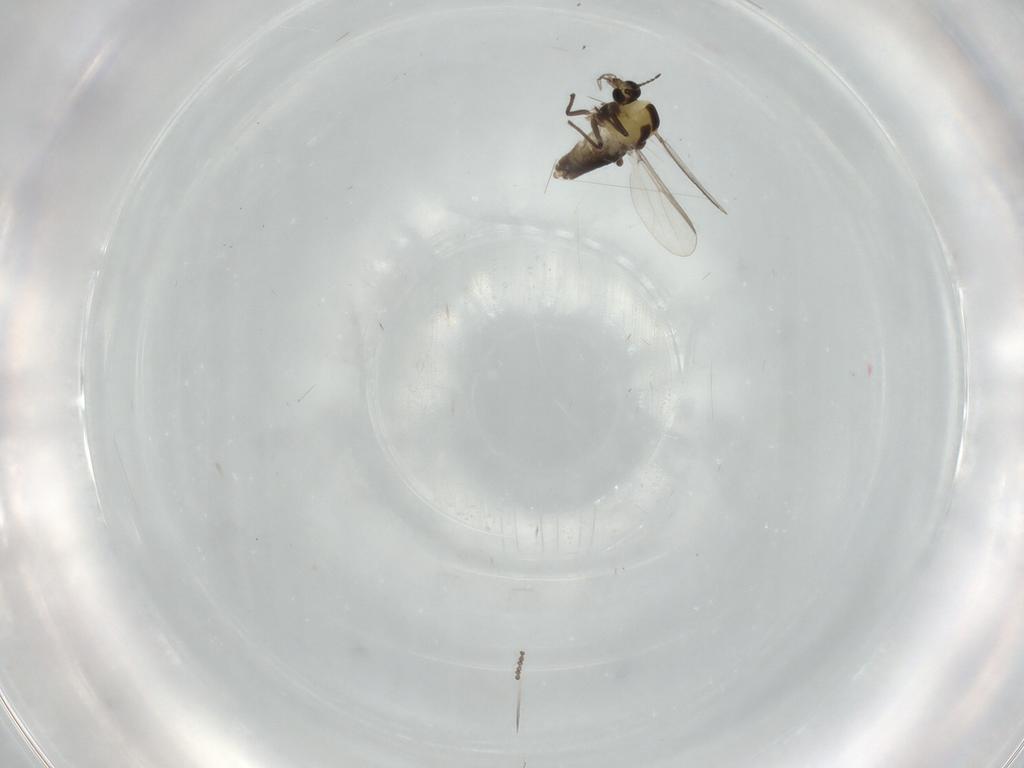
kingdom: Animalia
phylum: Arthropoda
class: Insecta
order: Diptera
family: Chironomidae
